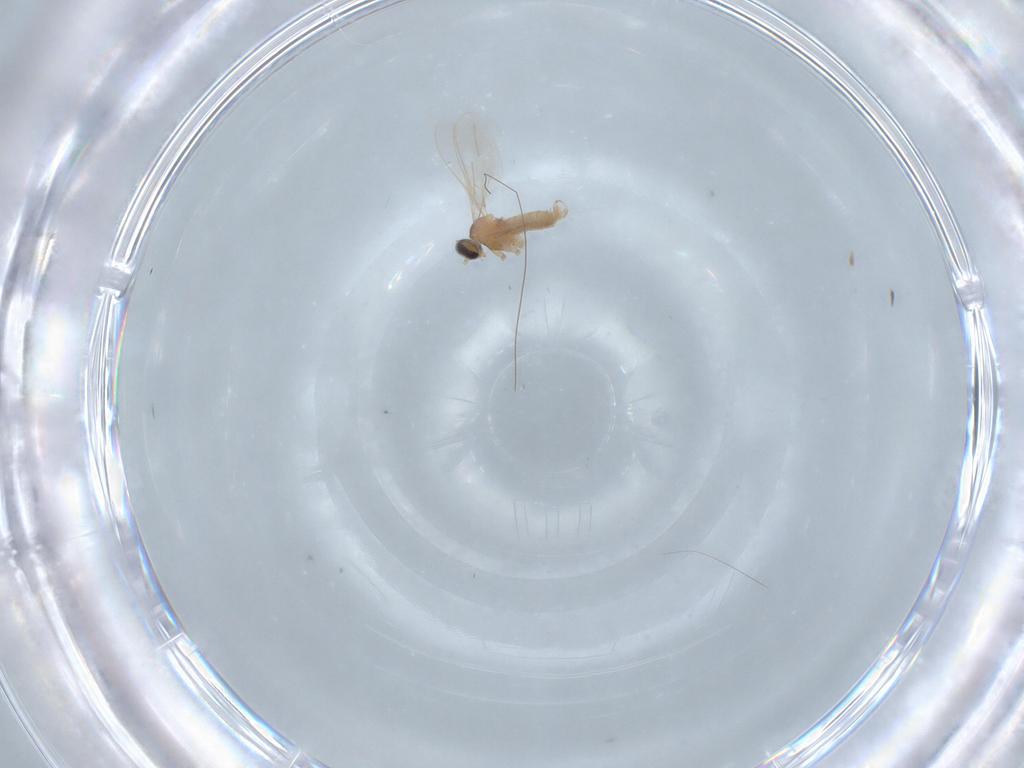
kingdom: Animalia
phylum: Arthropoda
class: Insecta
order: Diptera
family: Cecidomyiidae
